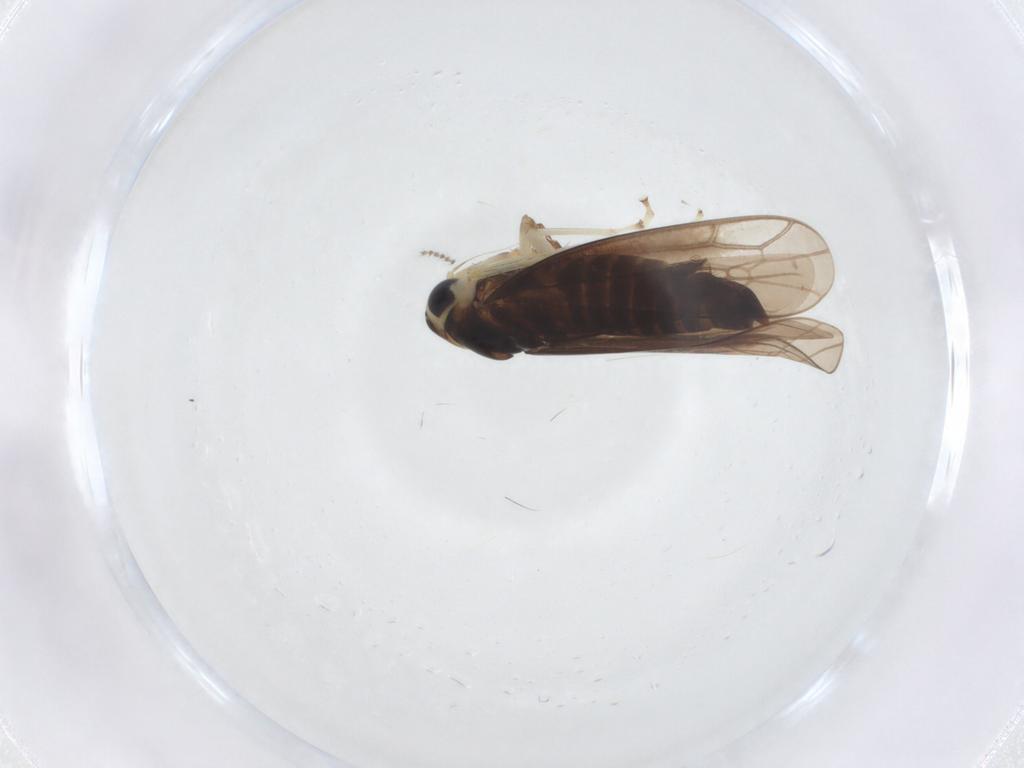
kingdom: Animalia
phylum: Arthropoda
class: Insecta
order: Hemiptera
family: Cicadellidae
